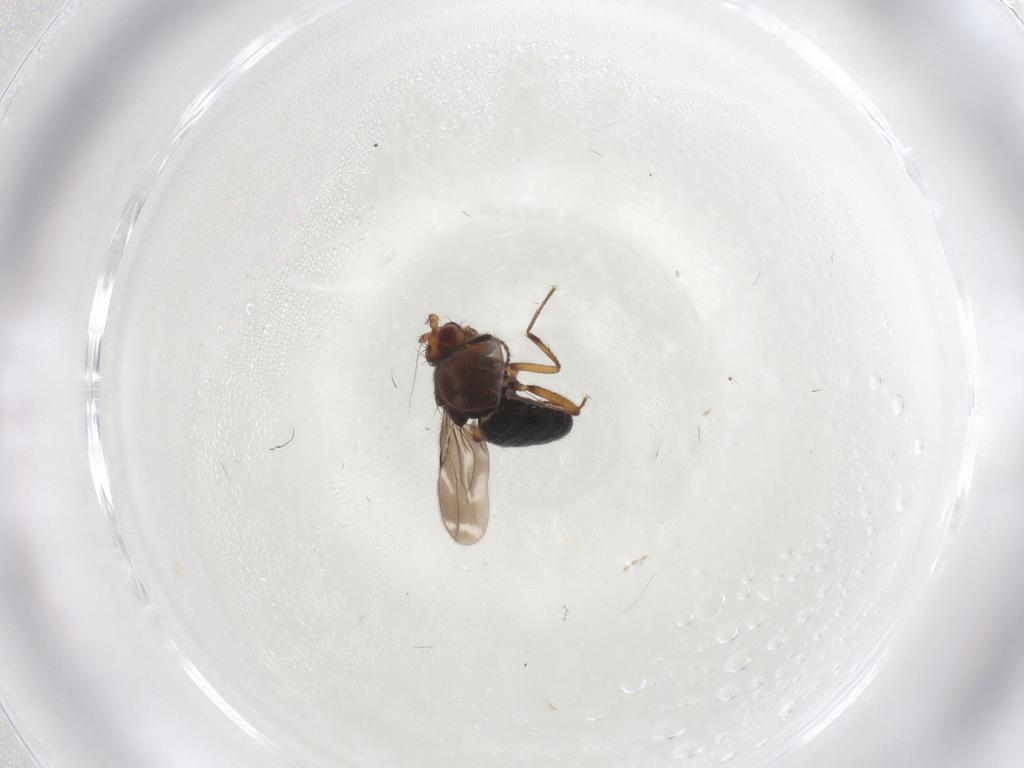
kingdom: Animalia
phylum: Arthropoda
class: Insecta
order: Diptera
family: Sphaeroceridae
